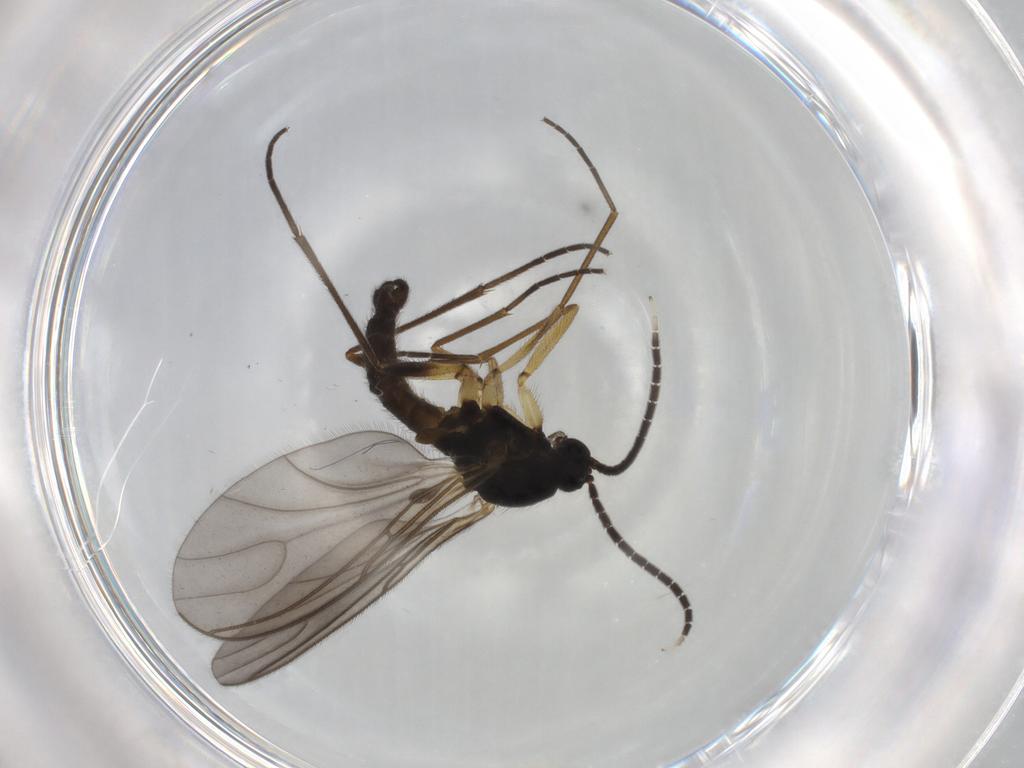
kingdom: Animalia
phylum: Arthropoda
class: Insecta
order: Diptera
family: Sciaridae
